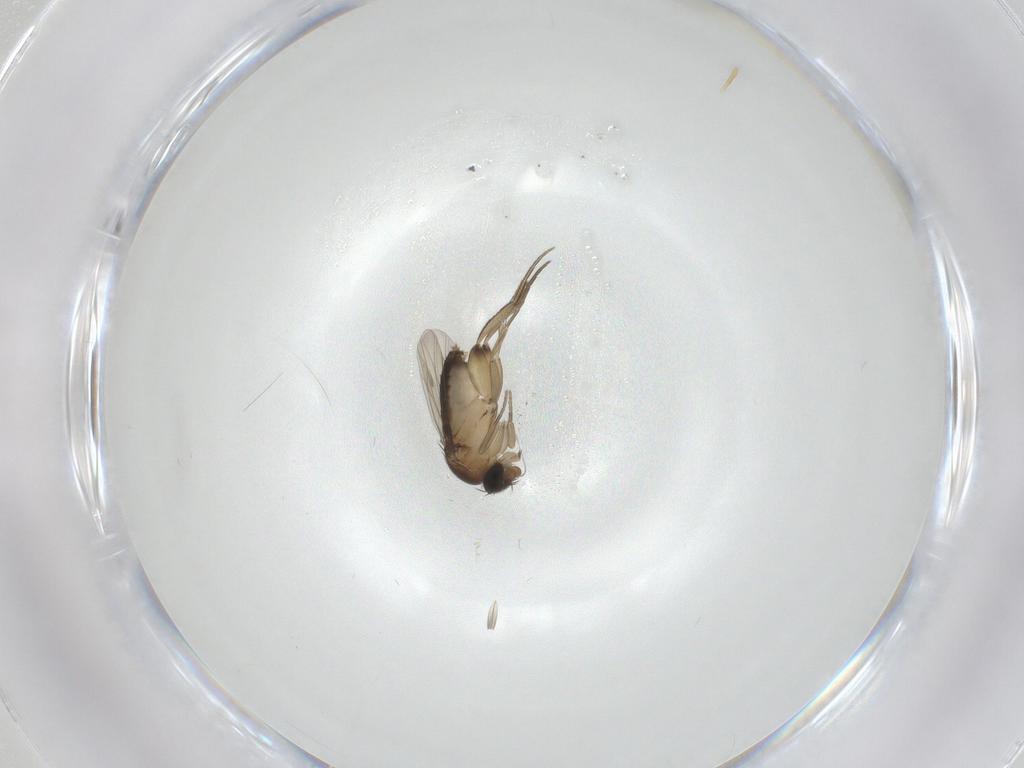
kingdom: Animalia
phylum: Arthropoda
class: Insecta
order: Diptera
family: Phoridae
